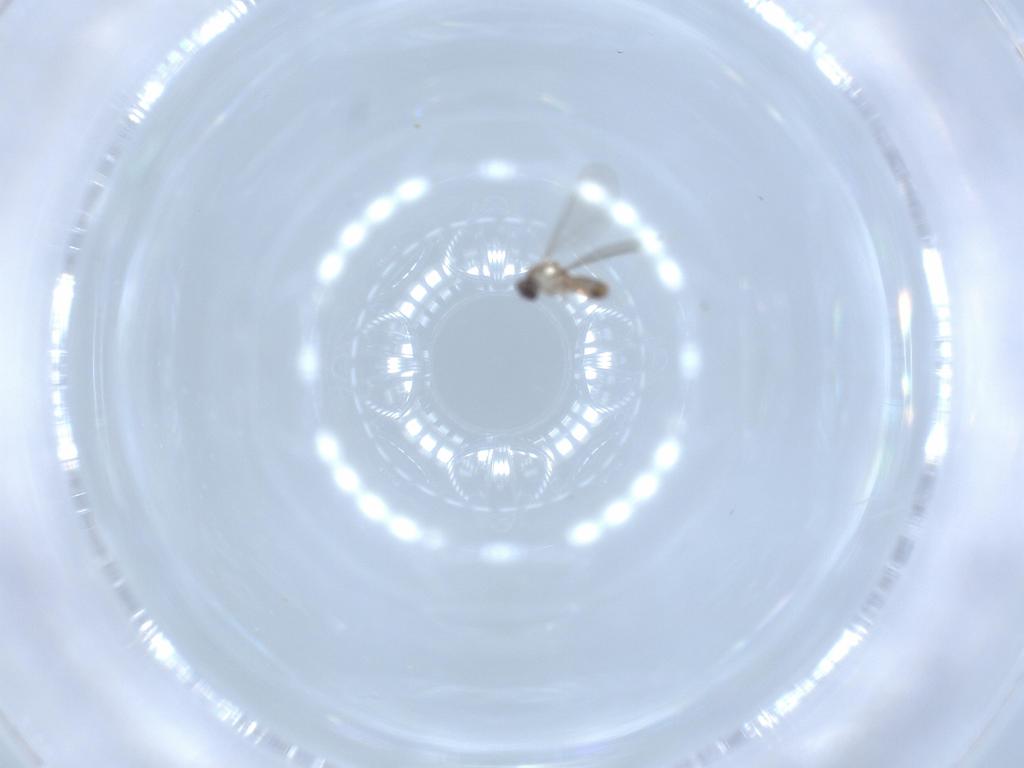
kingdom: Animalia
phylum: Arthropoda
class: Insecta
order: Diptera
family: Cecidomyiidae
